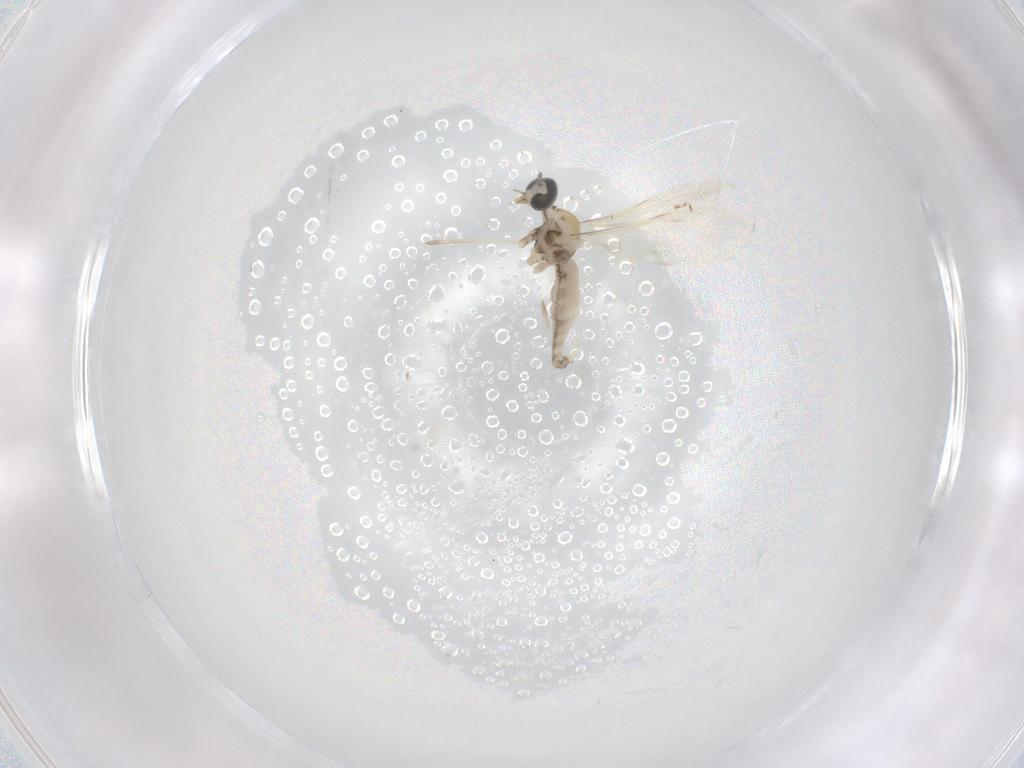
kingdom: Animalia
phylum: Arthropoda
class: Insecta
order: Diptera
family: Cecidomyiidae
